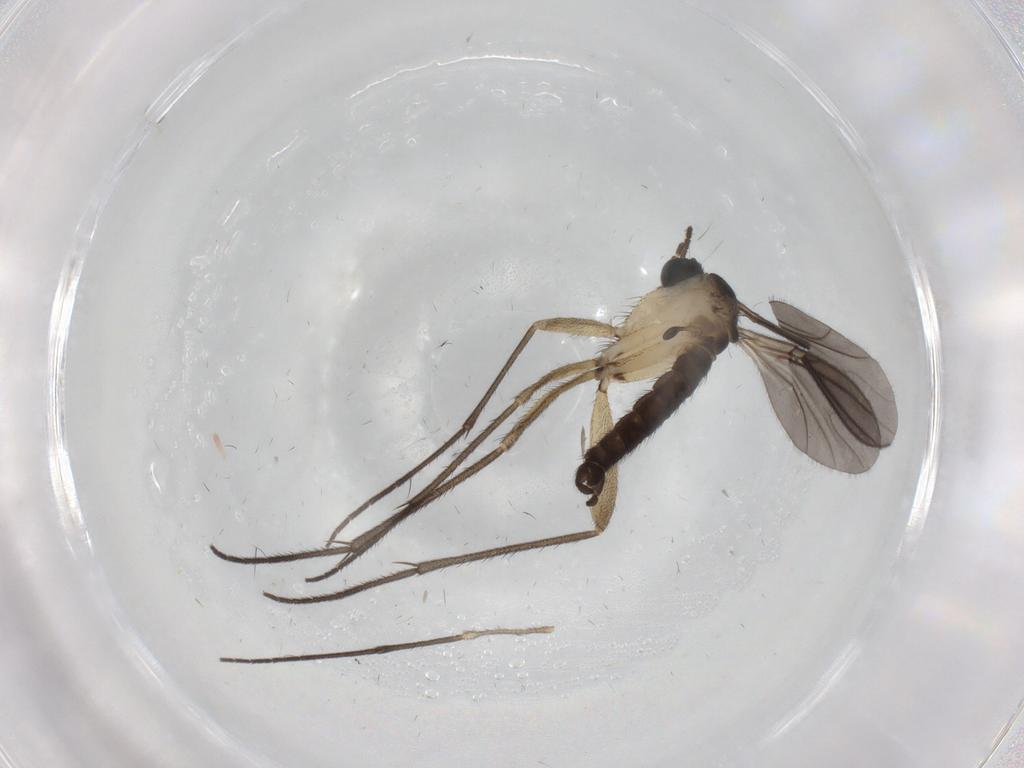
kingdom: Animalia
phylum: Arthropoda
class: Insecta
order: Diptera
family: Sciaridae
